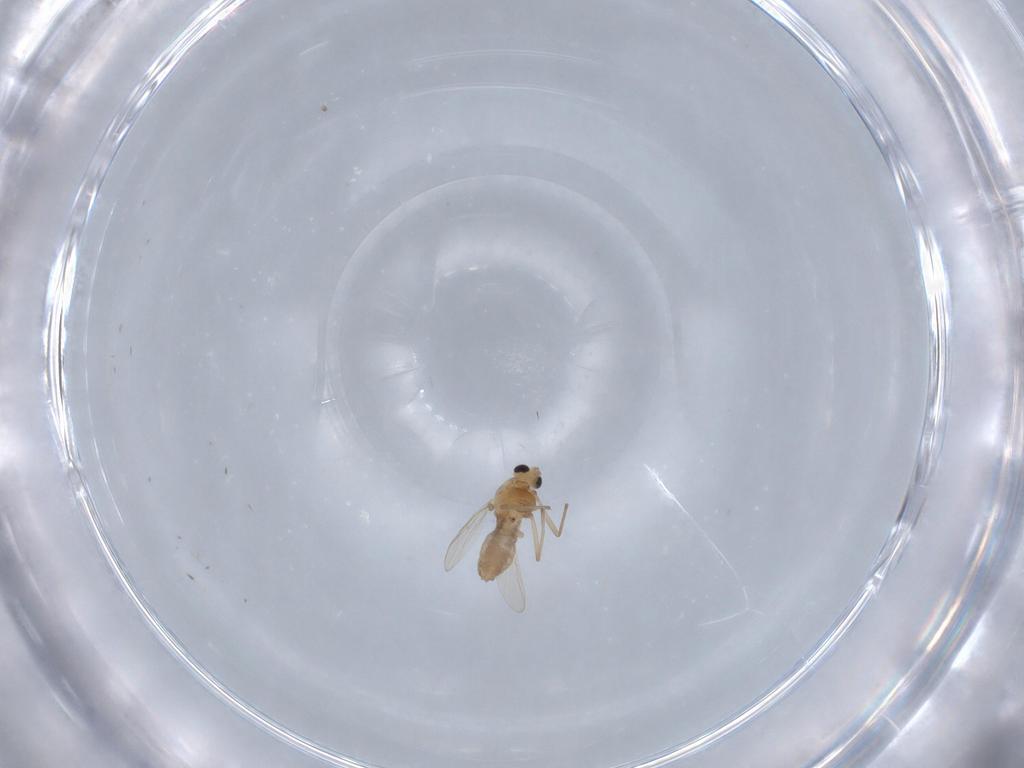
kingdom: Animalia
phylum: Arthropoda
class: Insecta
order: Diptera
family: Chironomidae
